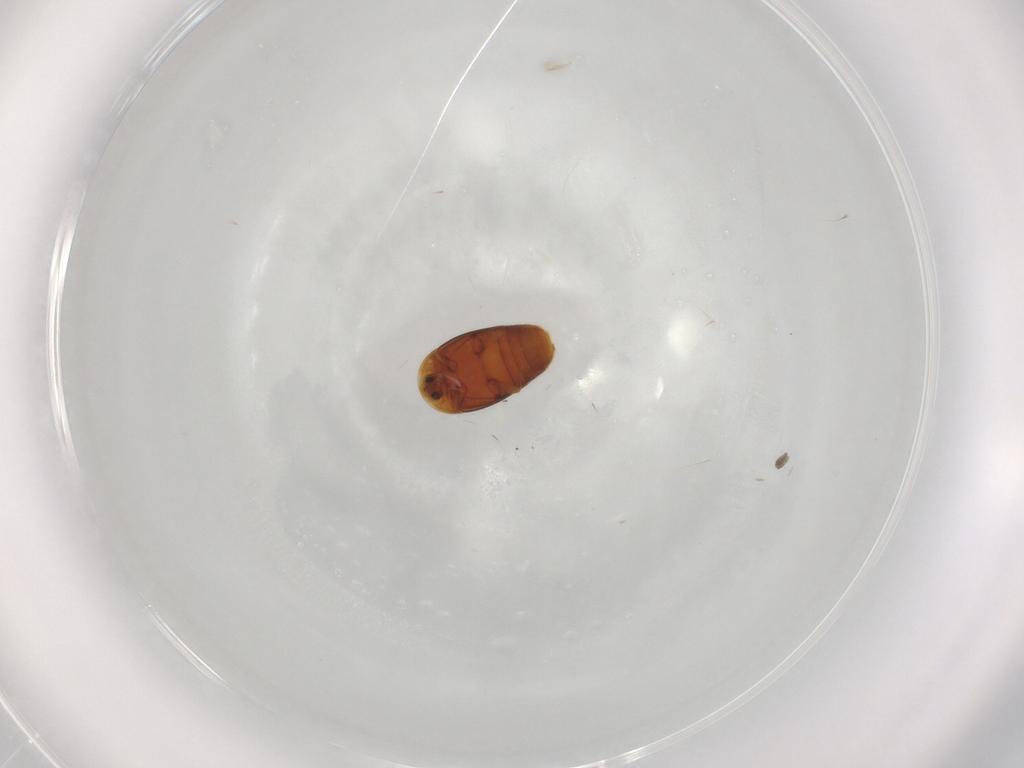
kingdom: Animalia
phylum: Arthropoda
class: Insecta
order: Coleoptera
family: Corylophidae
